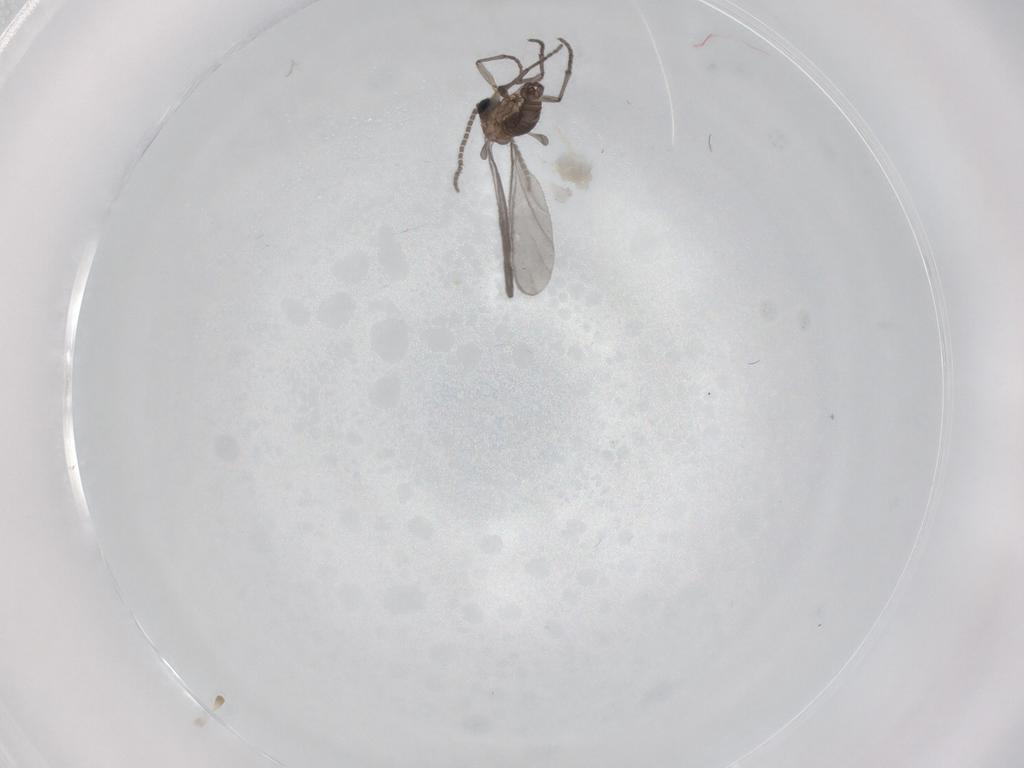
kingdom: Animalia
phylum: Arthropoda
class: Insecta
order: Diptera
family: Sciaridae
